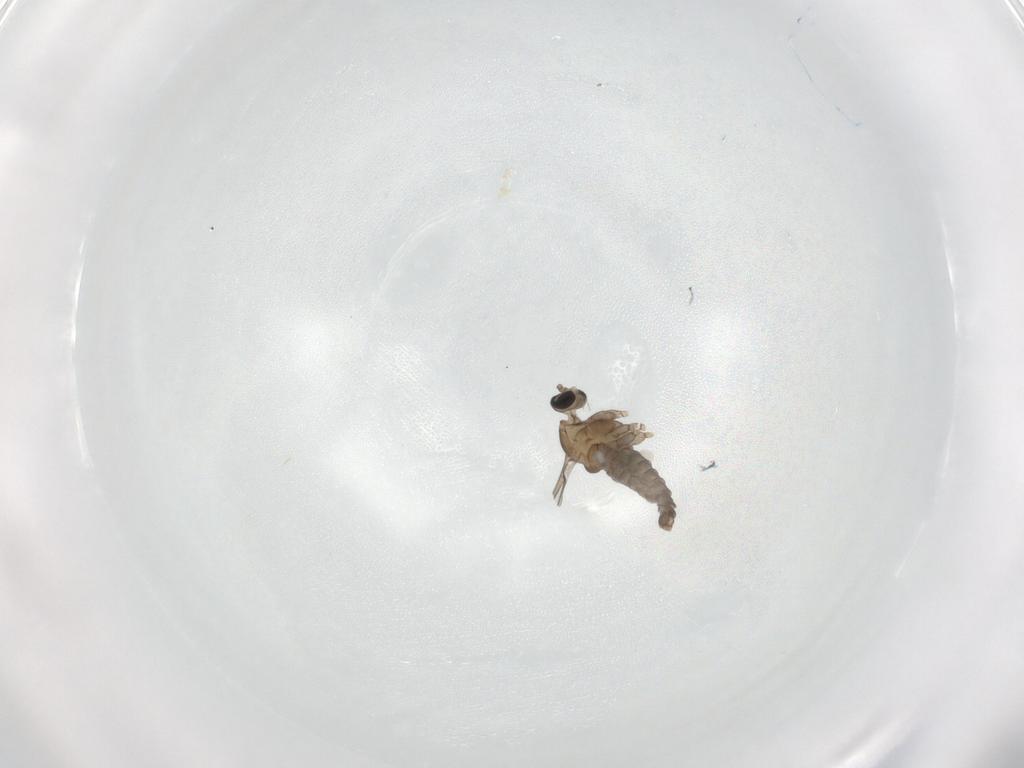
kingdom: Animalia
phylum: Arthropoda
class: Insecta
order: Diptera
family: Cecidomyiidae
